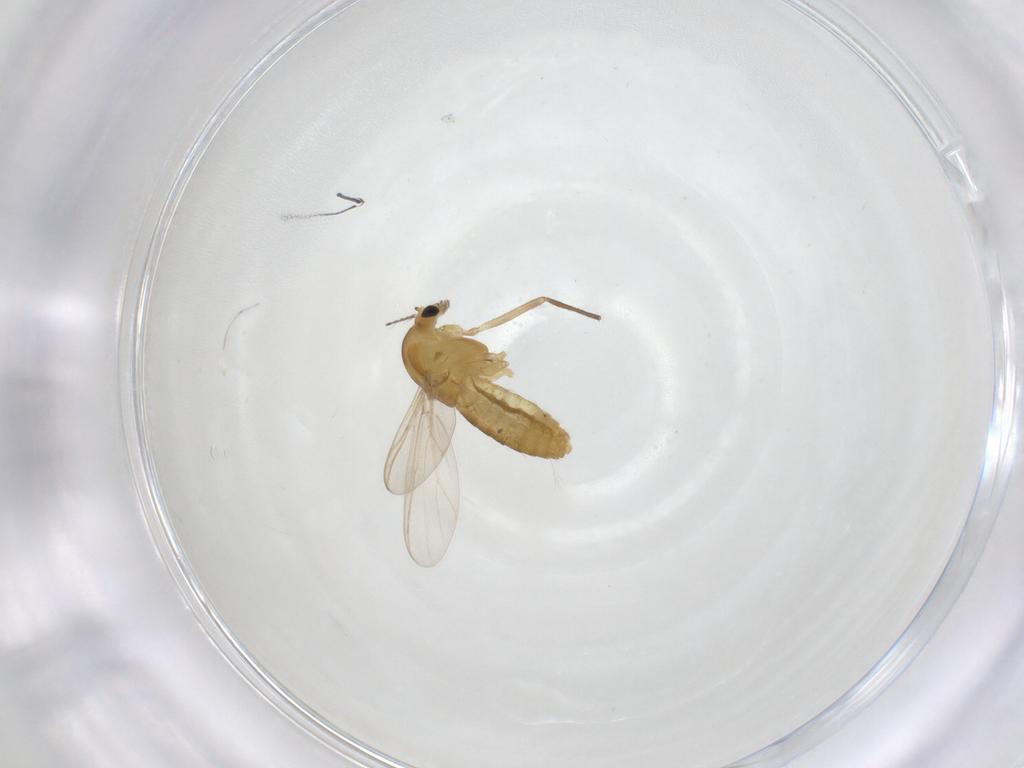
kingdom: Animalia
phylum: Arthropoda
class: Insecta
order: Diptera
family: Chironomidae
